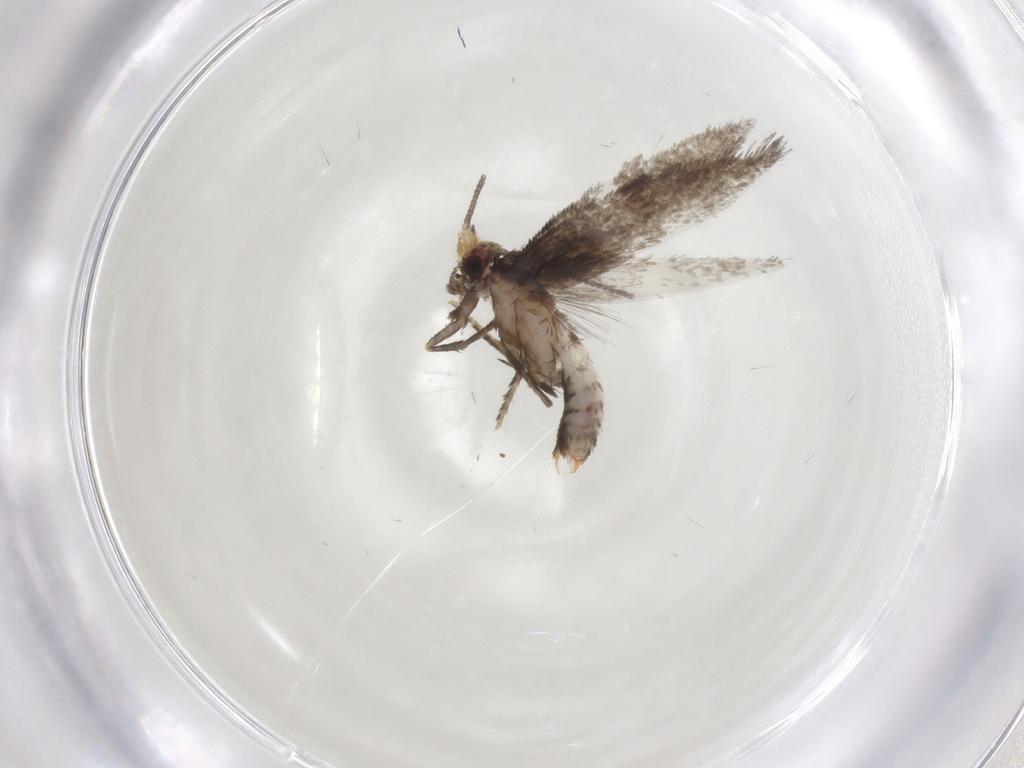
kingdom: Animalia
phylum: Arthropoda
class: Insecta
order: Lepidoptera
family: Nepticulidae
